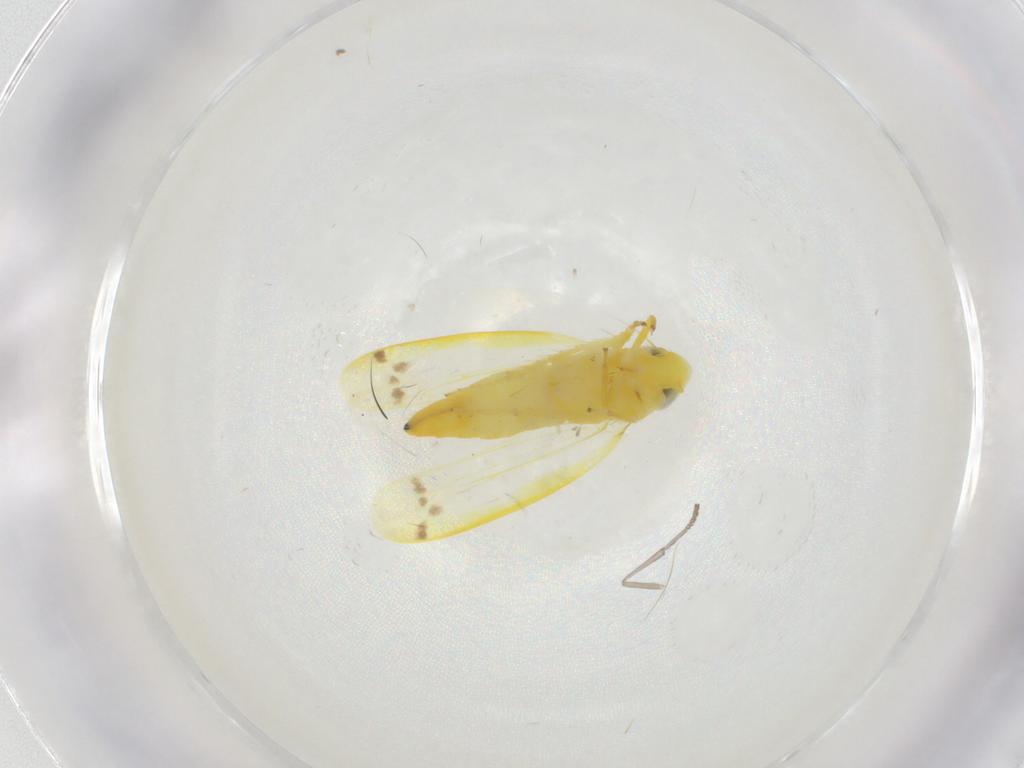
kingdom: Animalia
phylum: Arthropoda
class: Insecta
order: Hemiptera
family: Cicadellidae
